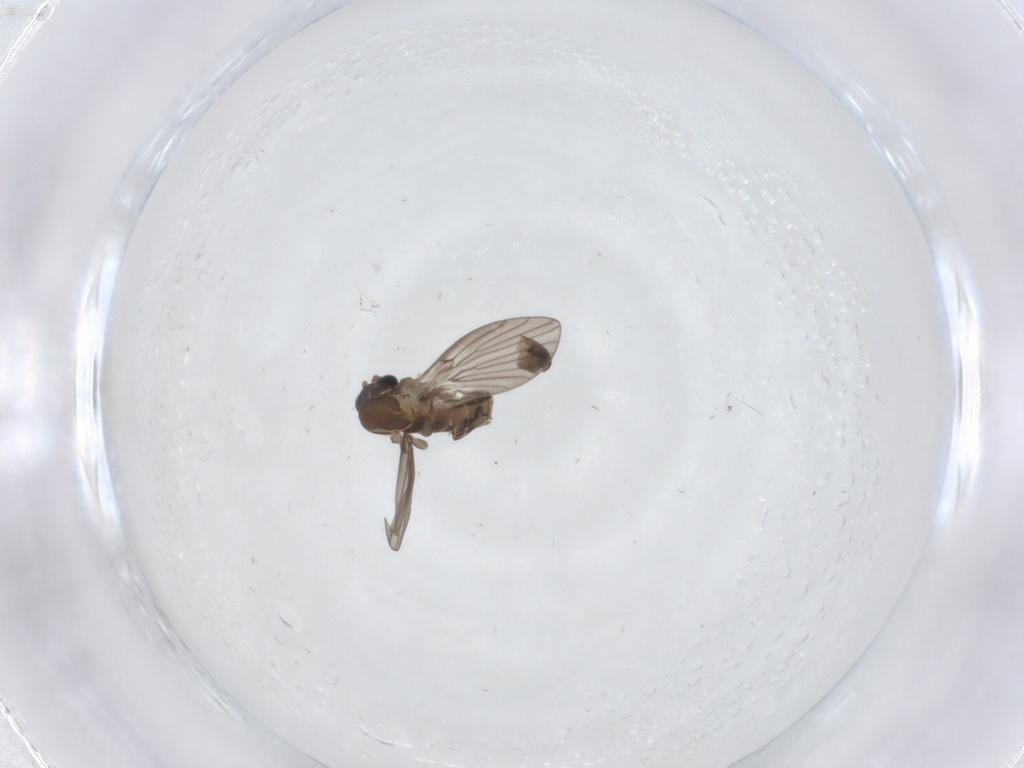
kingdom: Animalia
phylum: Arthropoda
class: Insecta
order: Diptera
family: Psychodidae
